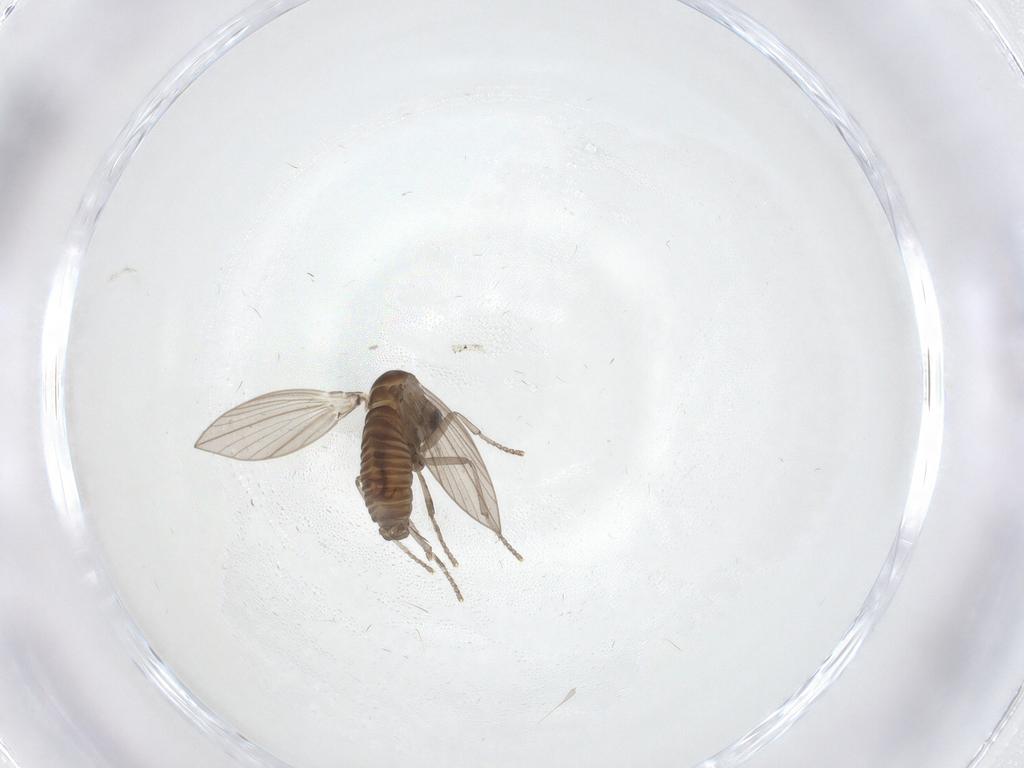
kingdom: Animalia
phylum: Arthropoda
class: Insecta
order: Diptera
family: Psychodidae
